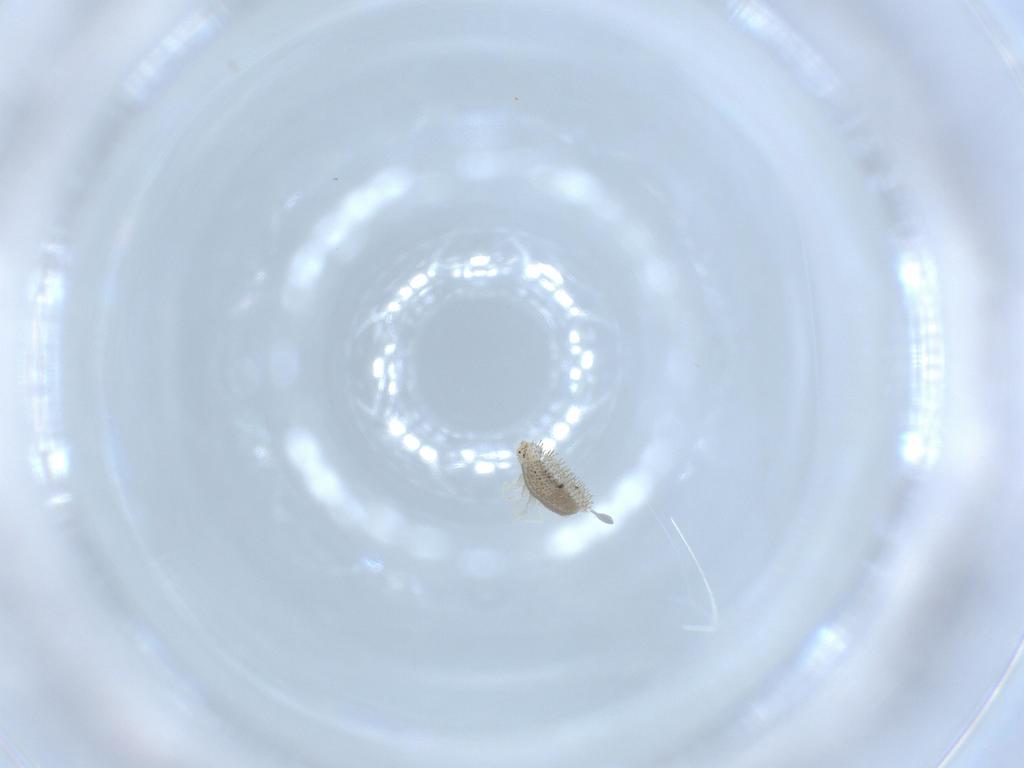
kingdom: Animalia
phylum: Arthropoda
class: Insecta
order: Coleoptera
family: Coccinellidae
